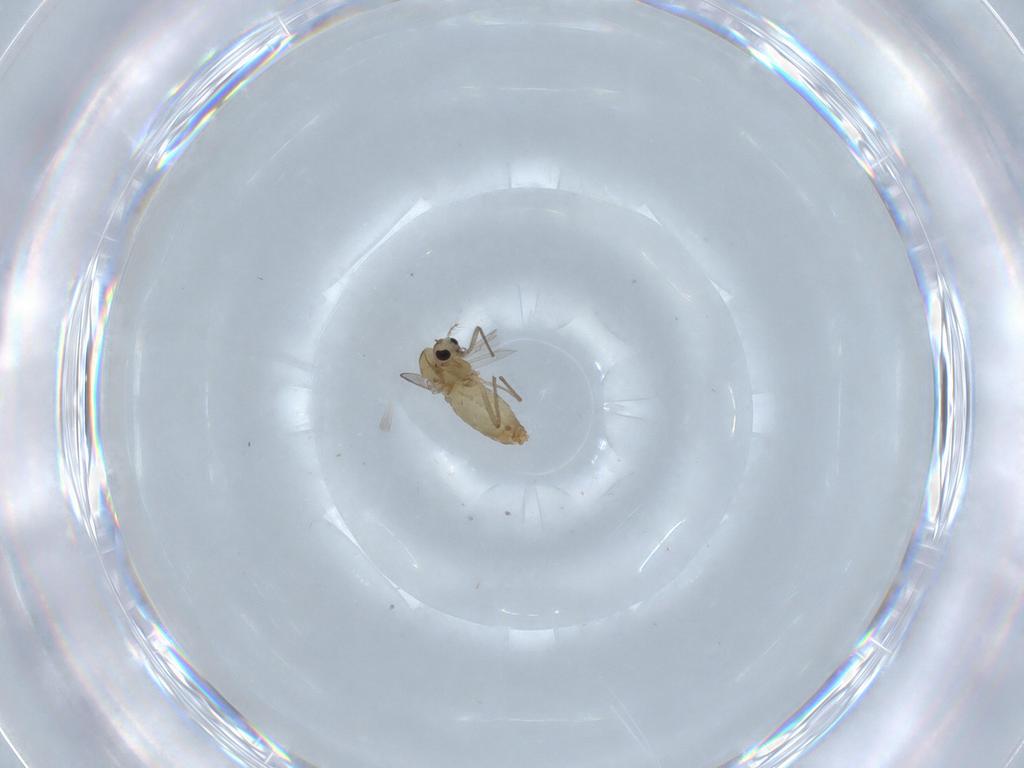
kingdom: Animalia
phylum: Arthropoda
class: Insecta
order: Diptera
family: Chironomidae
